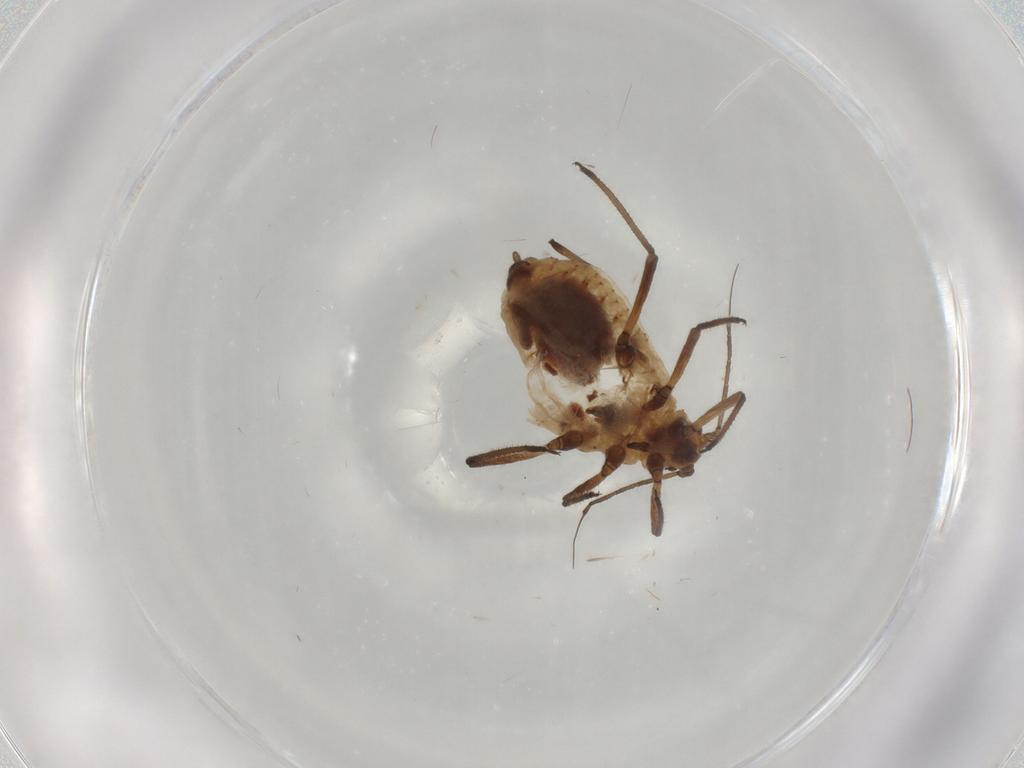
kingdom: Animalia
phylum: Arthropoda
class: Insecta
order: Hemiptera
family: Aphididae
